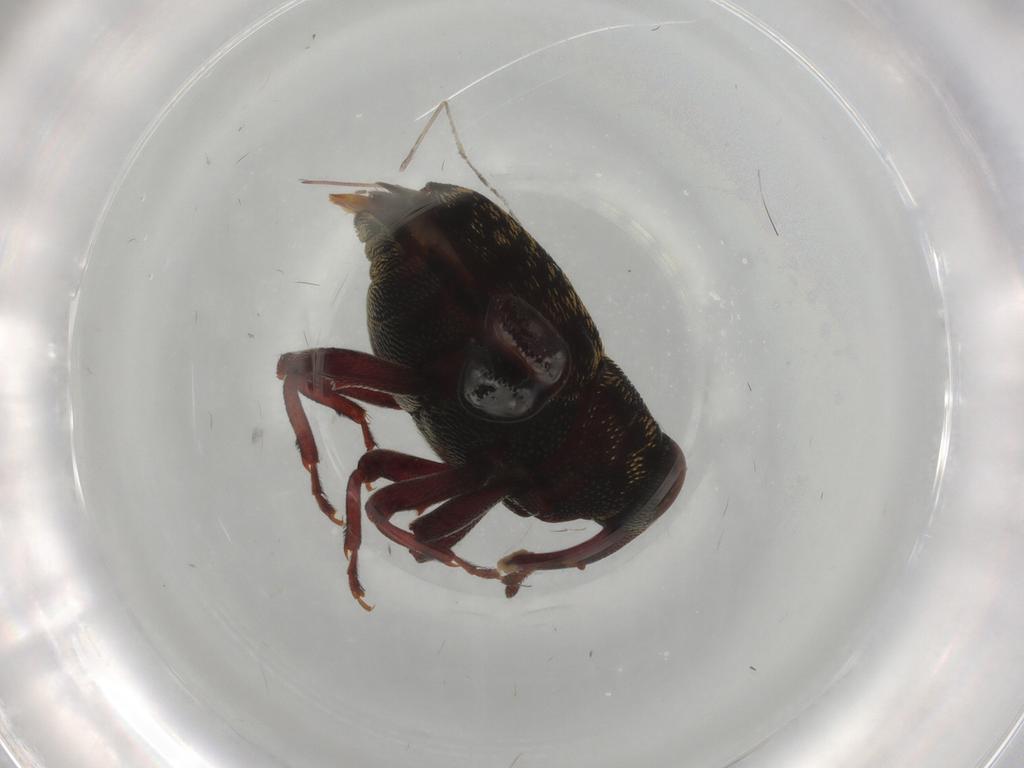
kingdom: Animalia
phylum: Arthropoda
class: Insecta
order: Coleoptera
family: Curculionidae
